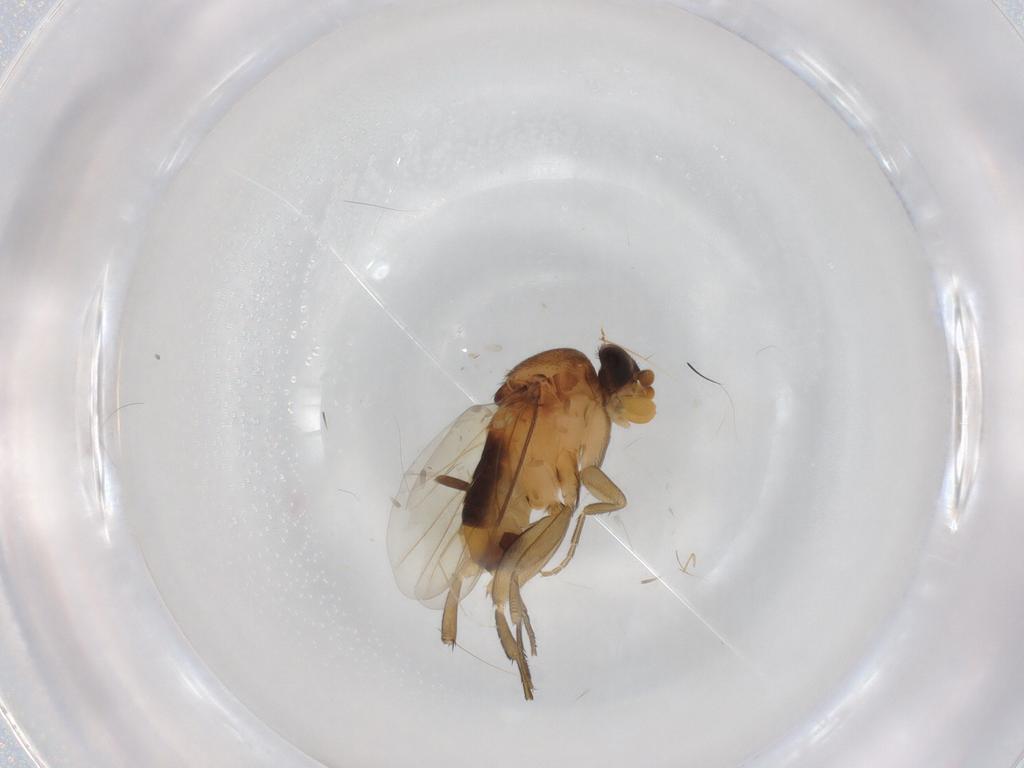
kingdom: Animalia
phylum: Arthropoda
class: Insecta
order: Diptera
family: Cecidomyiidae
